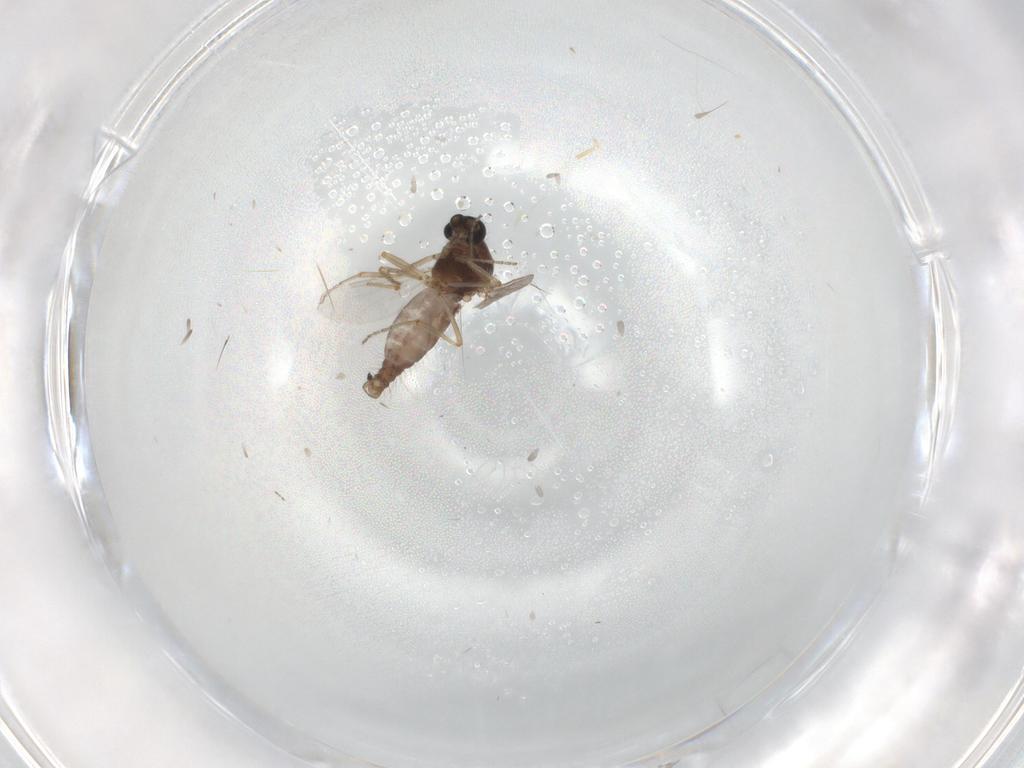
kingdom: Animalia
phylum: Arthropoda
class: Insecta
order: Diptera
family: Ceratopogonidae
